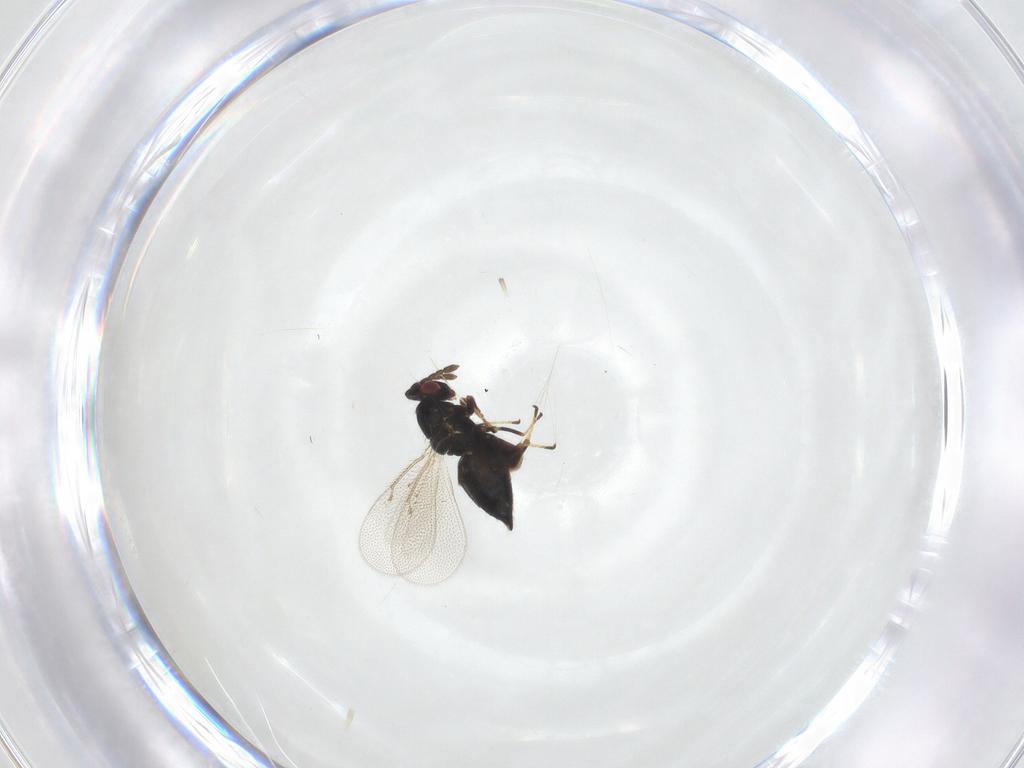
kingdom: Animalia
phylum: Arthropoda
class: Insecta
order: Hymenoptera
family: Eulophidae
